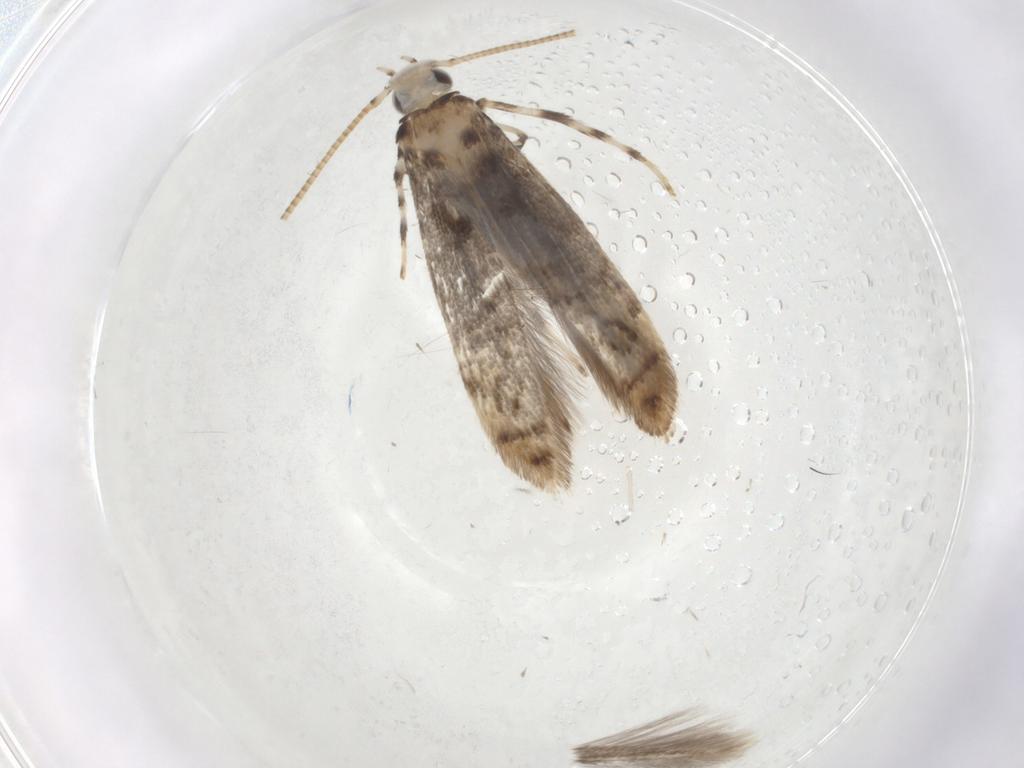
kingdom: Animalia
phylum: Arthropoda
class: Insecta
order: Lepidoptera
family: Gracillariidae
